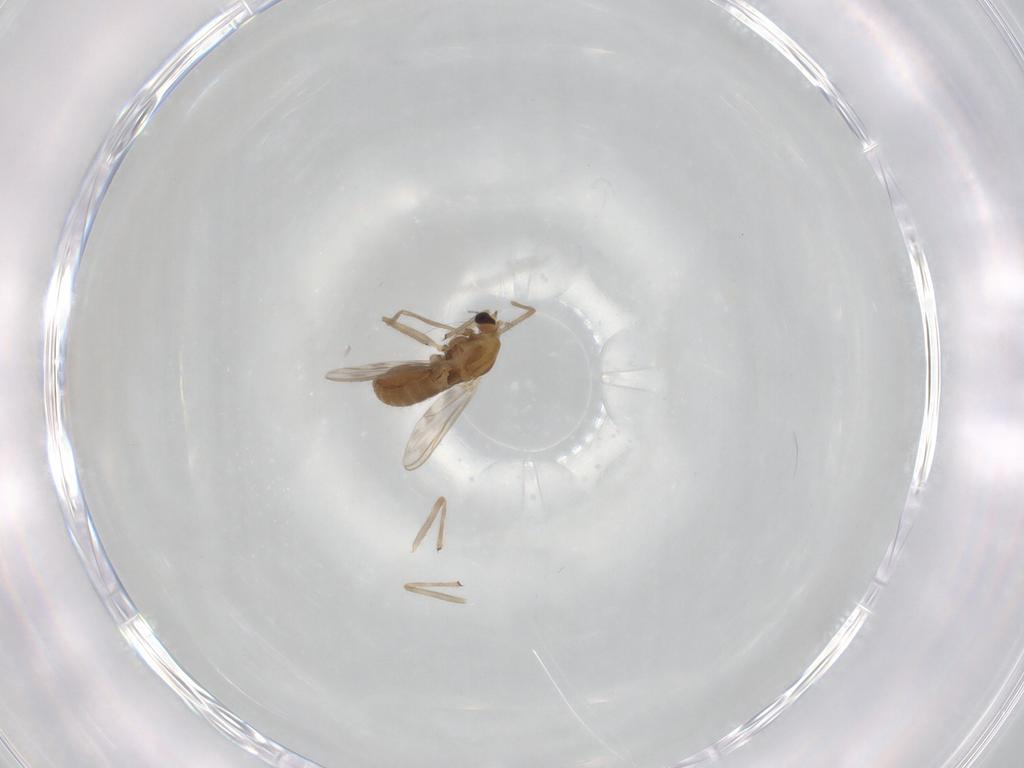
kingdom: Animalia
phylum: Arthropoda
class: Insecta
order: Diptera
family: Chironomidae
